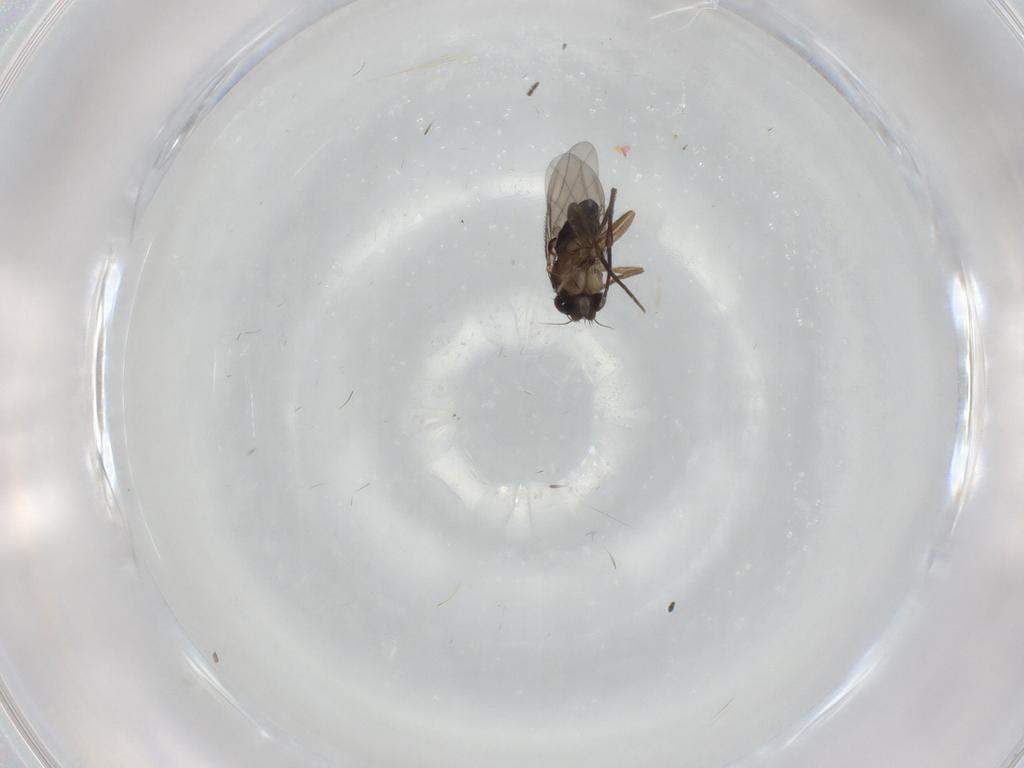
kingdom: Animalia
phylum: Arthropoda
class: Insecta
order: Diptera
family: Phoridae
